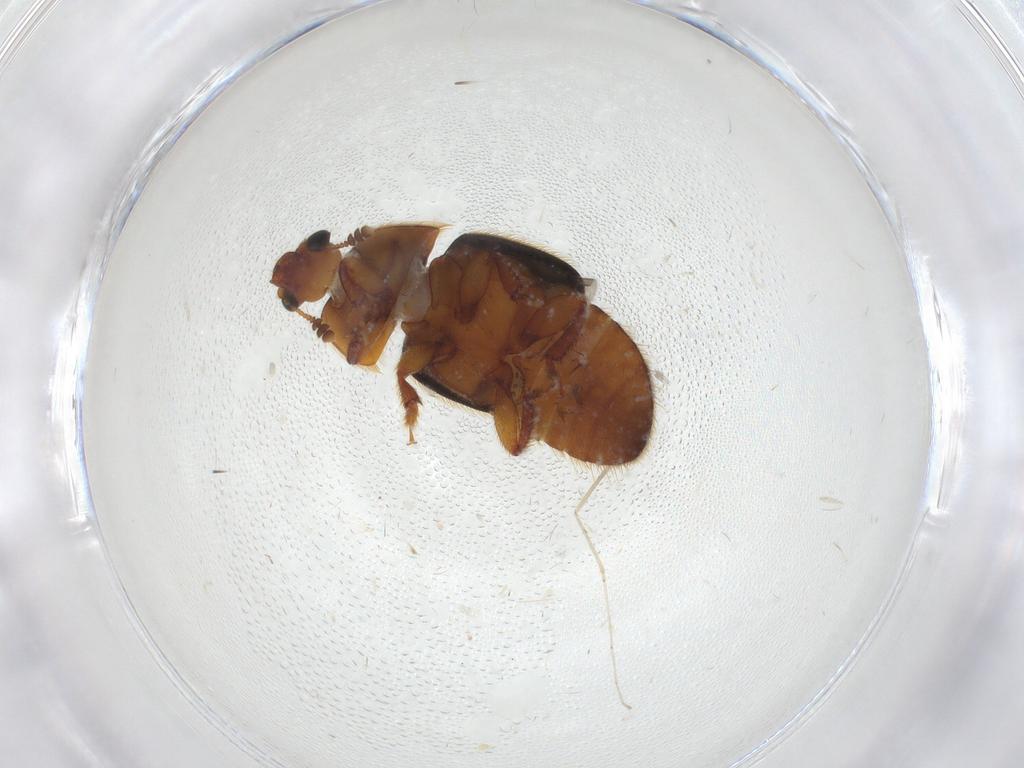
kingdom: Animalia
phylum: Arthropoda
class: Insecta
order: Coleoptera
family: Nitidulidae
